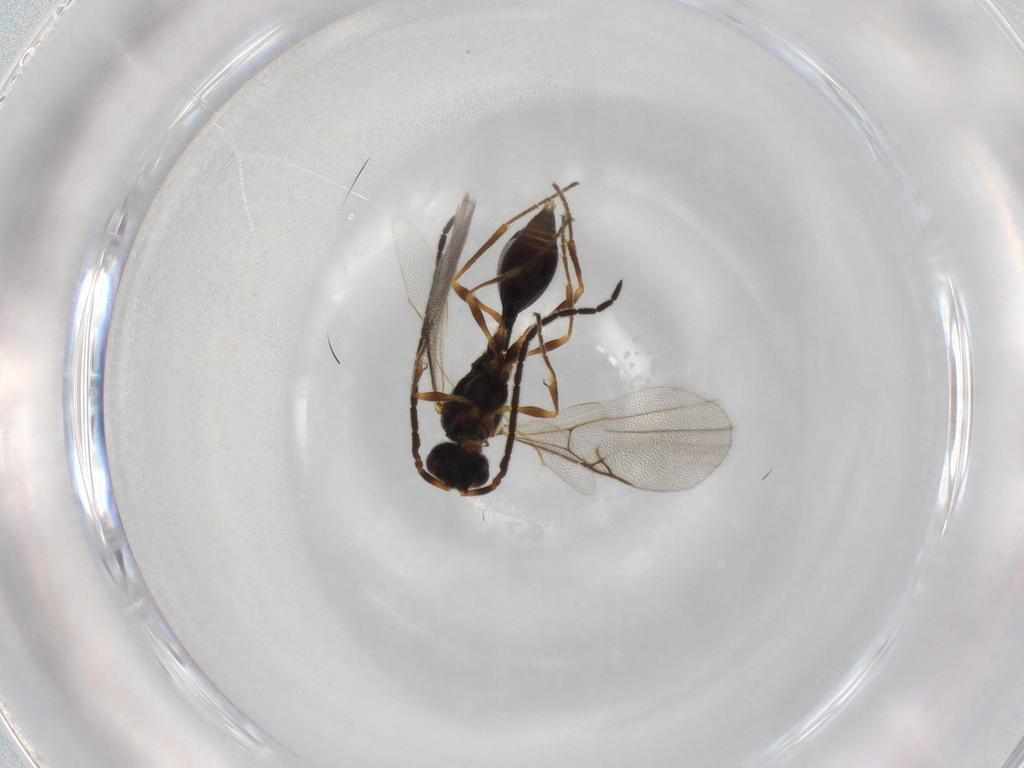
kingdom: Animalia
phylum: Arthropoda
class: Insecta
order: Hymenoptera
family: Diapriidae
